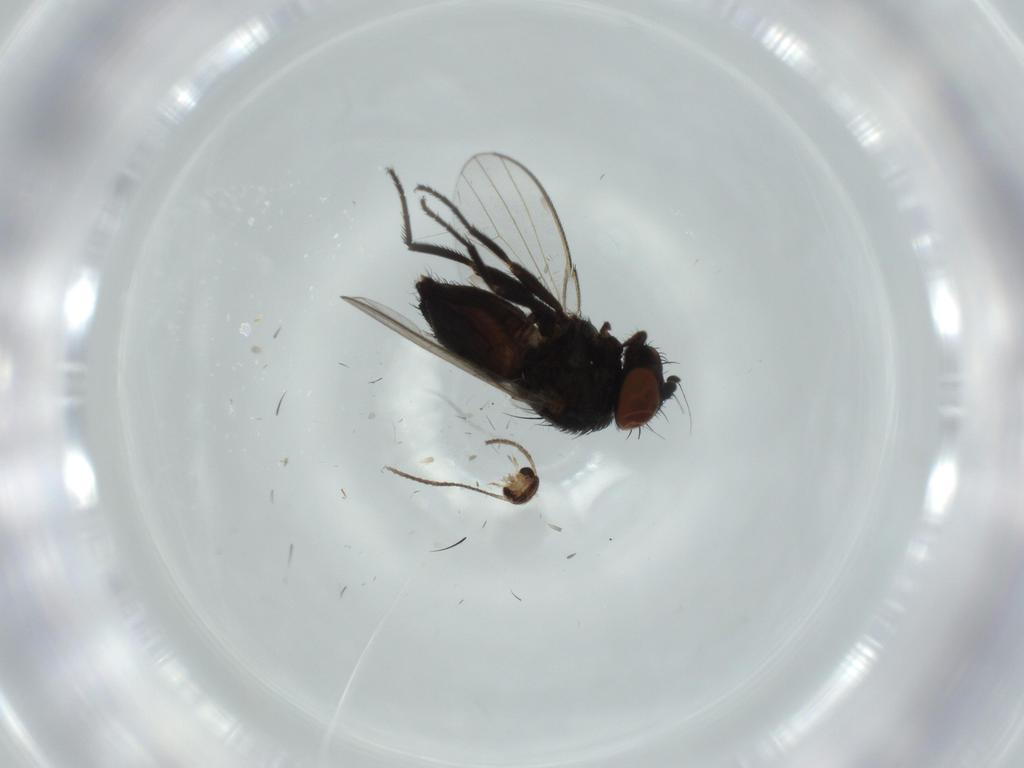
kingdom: Animalia
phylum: Arthropoda
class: Insecta
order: Diptera
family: Milichiidae
